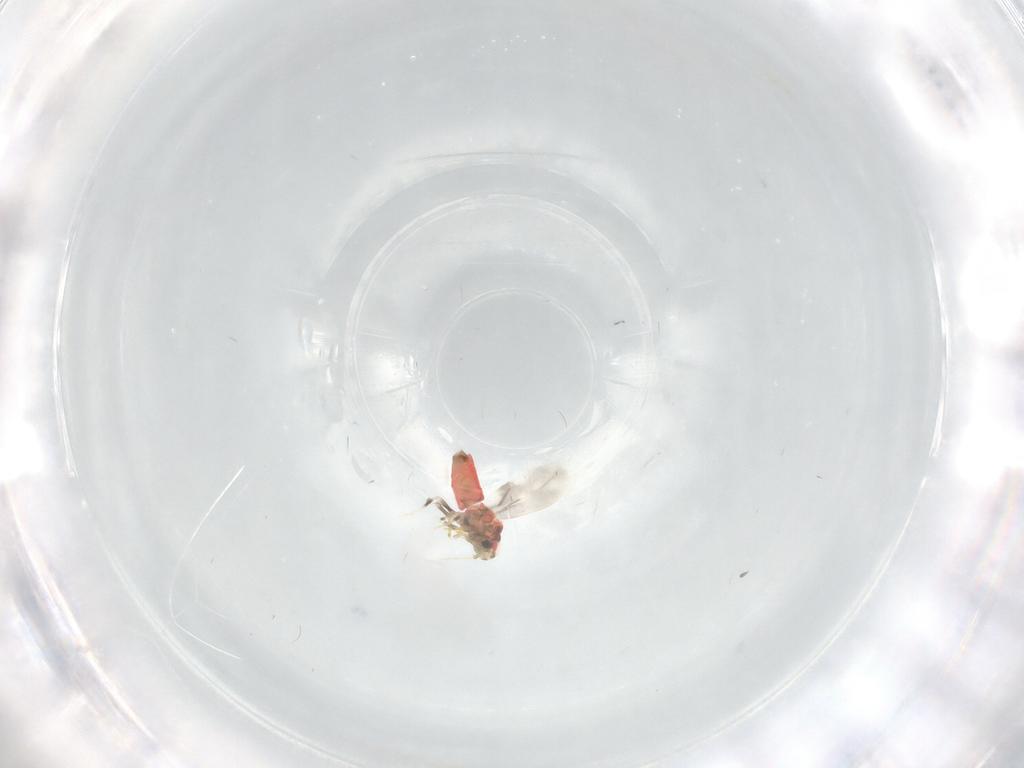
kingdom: Animalia
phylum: Arthropoda
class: Insecta
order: Hemiptera
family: Aleyrodidae
